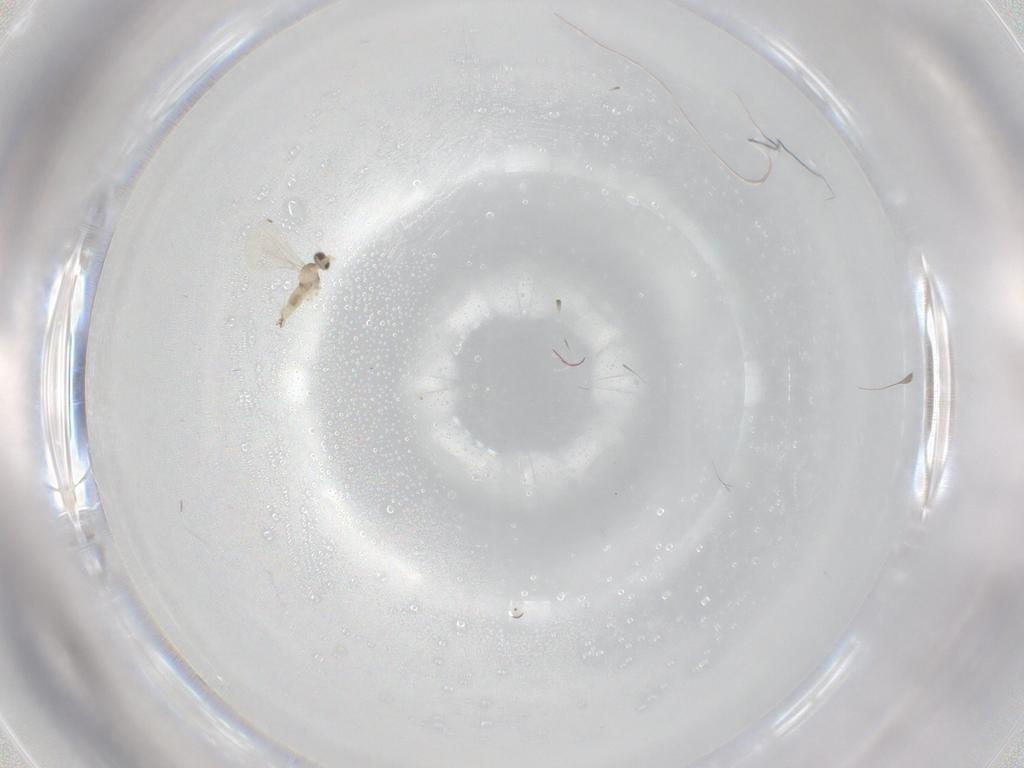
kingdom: Animalia
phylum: Arthropoda
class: Insecta
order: Diptera
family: Cecidomyiidae
